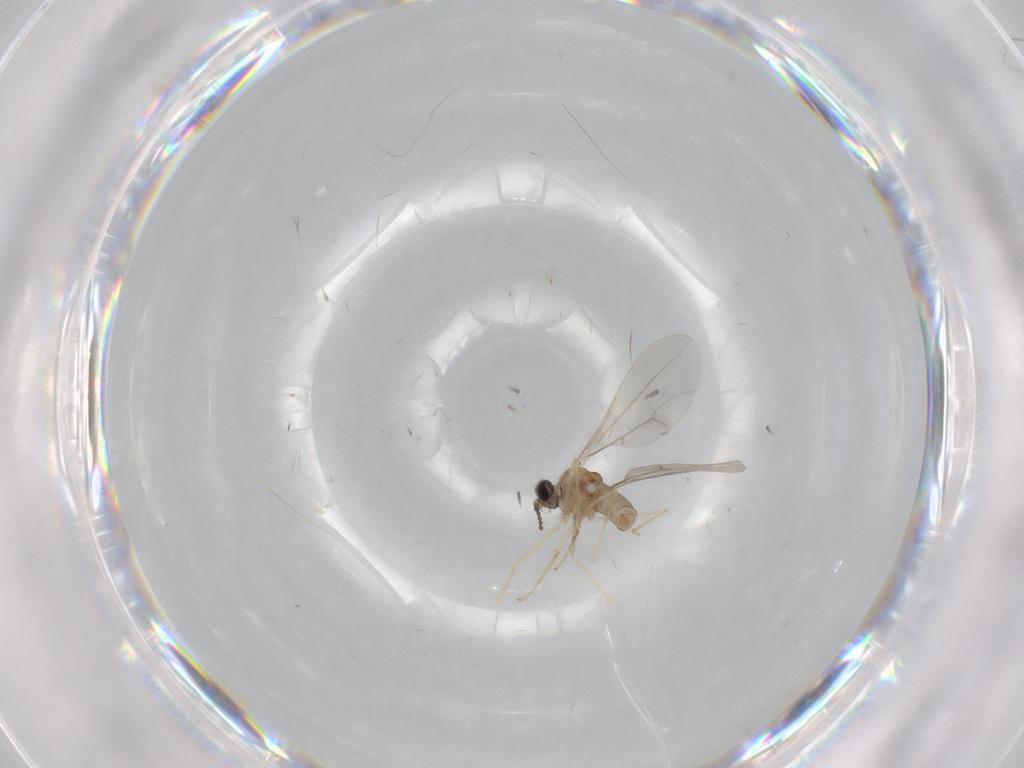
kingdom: Animalia
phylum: Arthropoda
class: Insecta
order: Diptera
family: Cecidomyiidae
